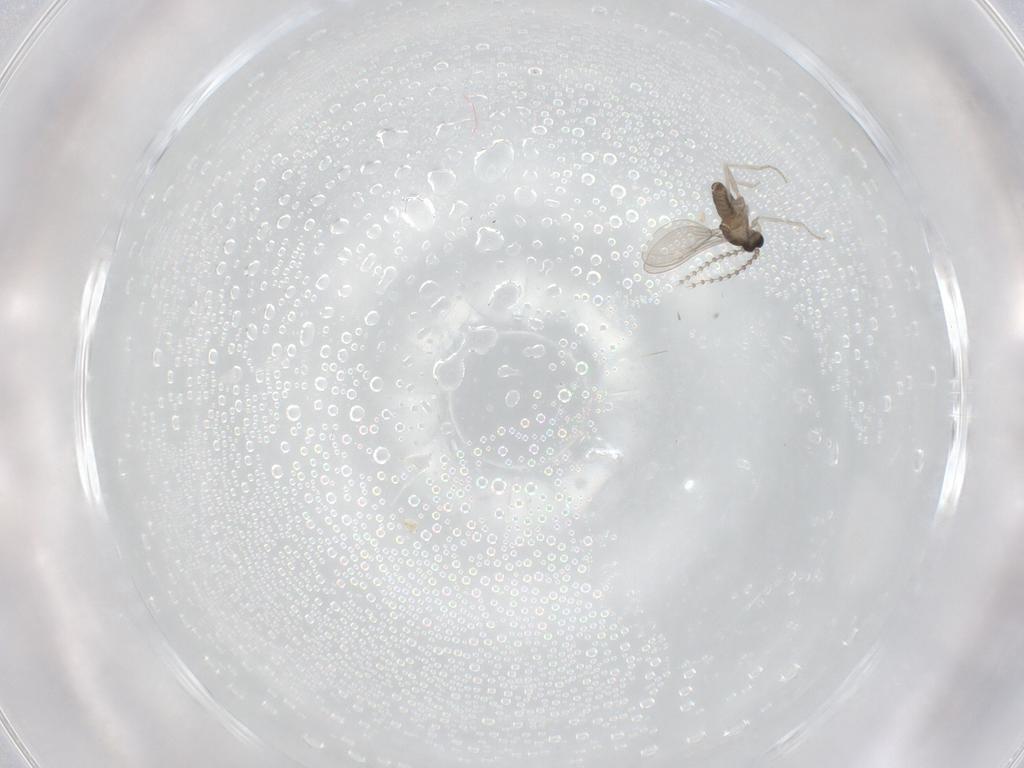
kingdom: Animalia
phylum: Arthropoda
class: Insecta
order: Diptera
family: Cecidomyiidae
